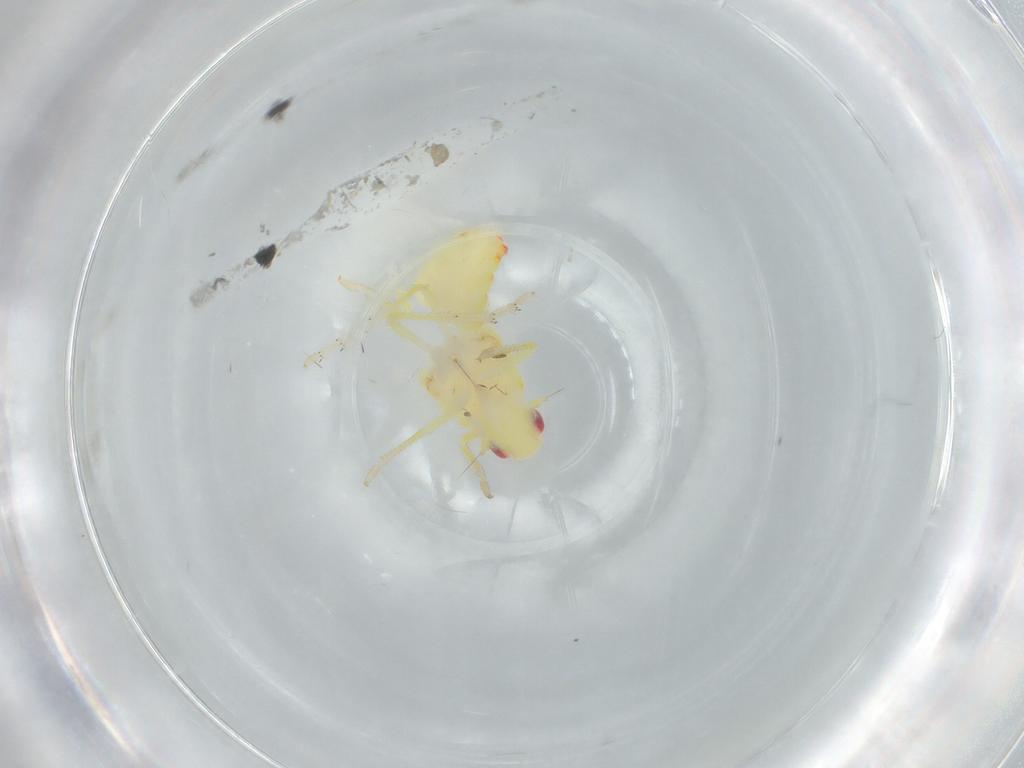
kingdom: Animalia
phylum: Arthropoda
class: Insecta
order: Hemiptera
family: Tropiduchidae
